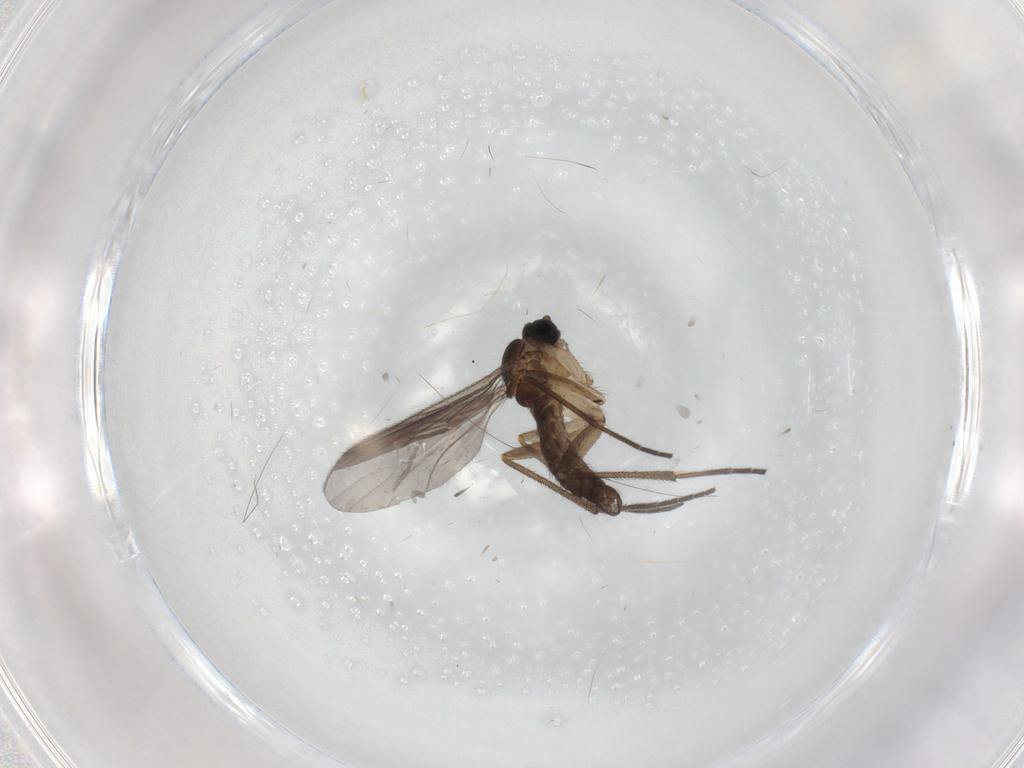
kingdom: Animalia
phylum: Arthropoda
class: Insecta
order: Diptera
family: Sciaridae
